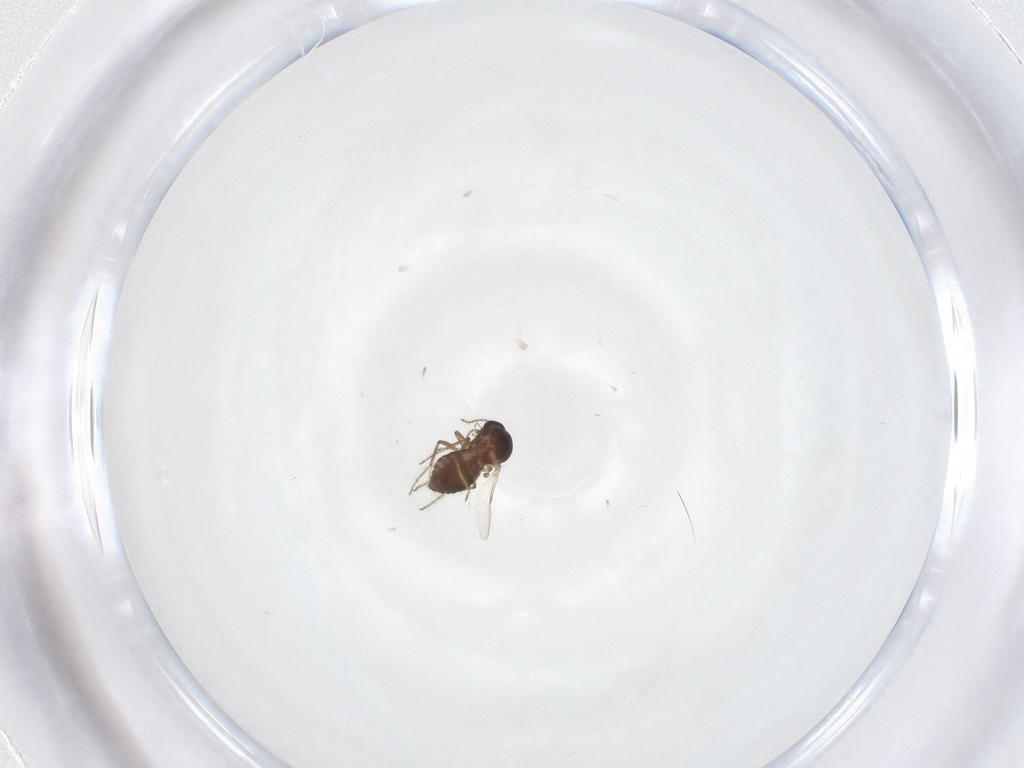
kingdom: Animalia
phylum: Arthropoda
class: Insecta
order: Diptera
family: Ceratopogonidae
